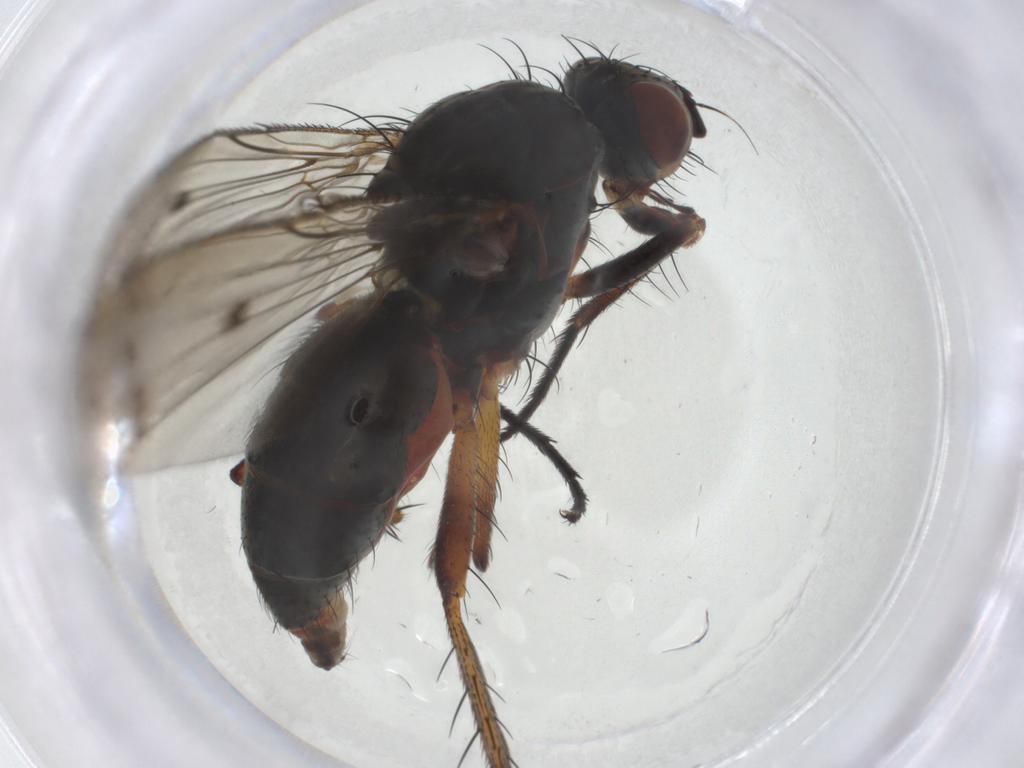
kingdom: Animalia
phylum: Arthropoda
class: Insecta
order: Diptera
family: Anthomyiidae
